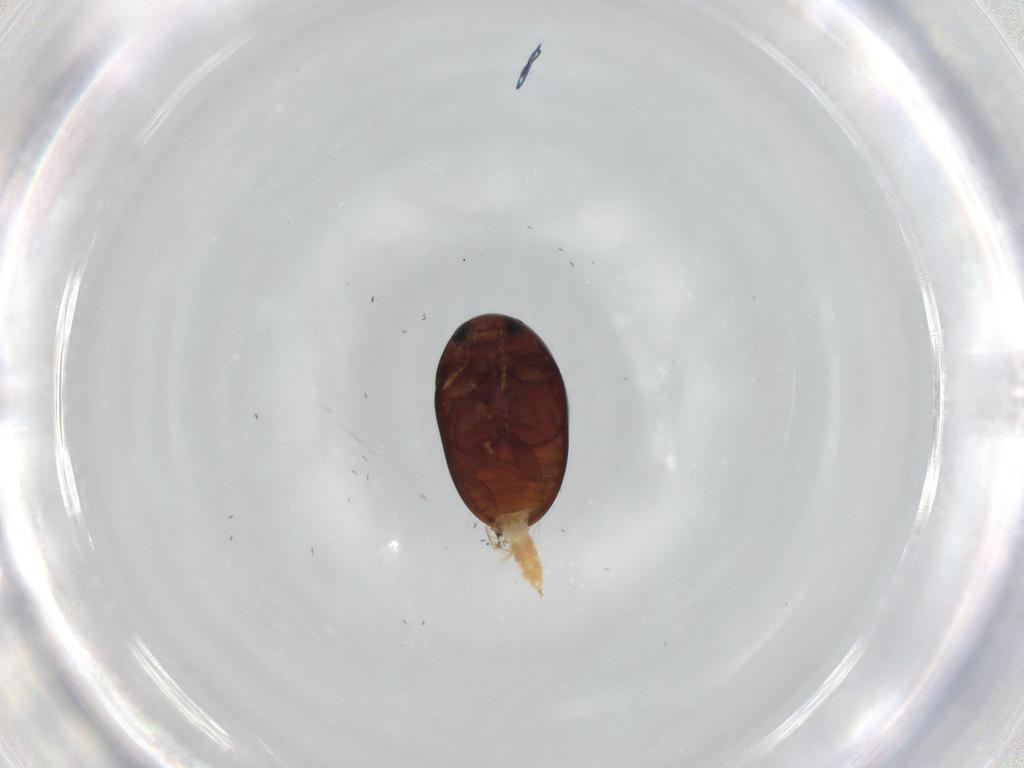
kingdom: Animalia
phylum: Arthropoda
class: Insecta
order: Coleoptera
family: Phalacridae
